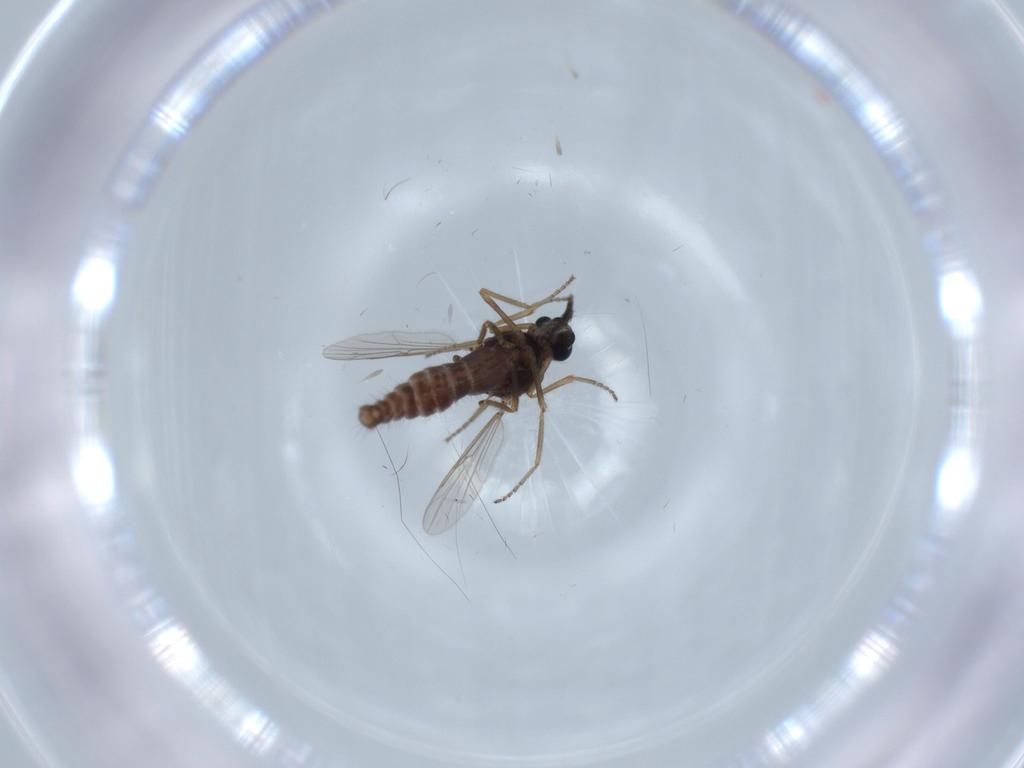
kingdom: Animalia
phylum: Arthropoda
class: Insecta
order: Diptera
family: Ceratopogonidae
